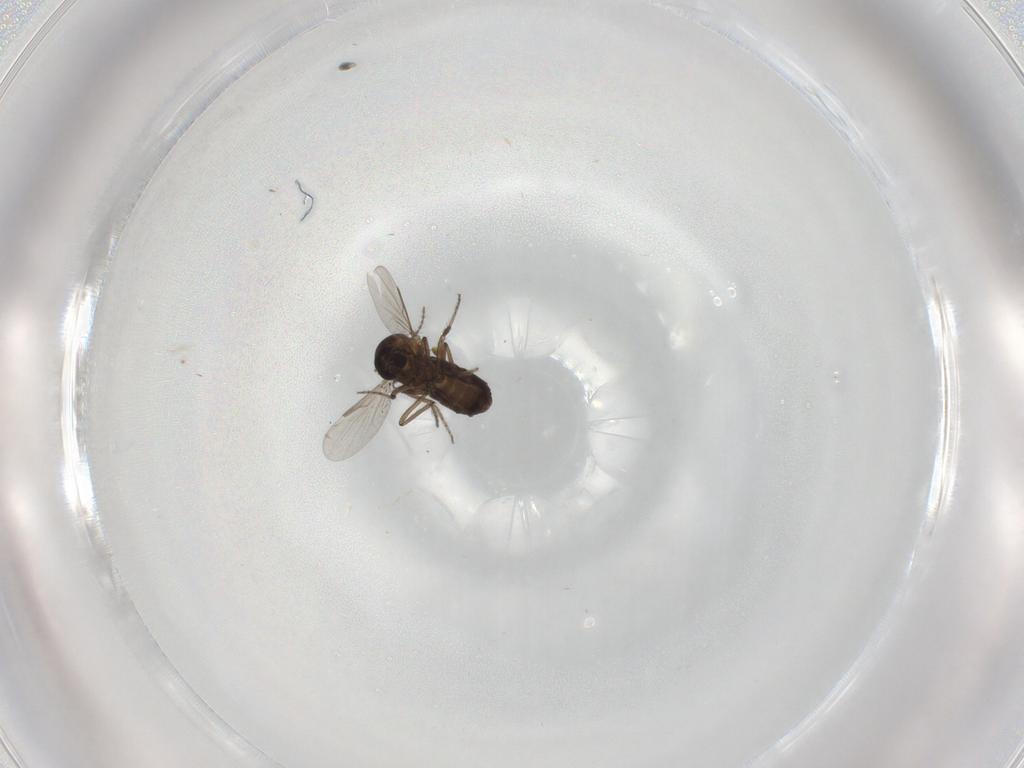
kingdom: Animalia
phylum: Arthropoda
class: Insecta
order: Diptera
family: Ceratopogonidae
